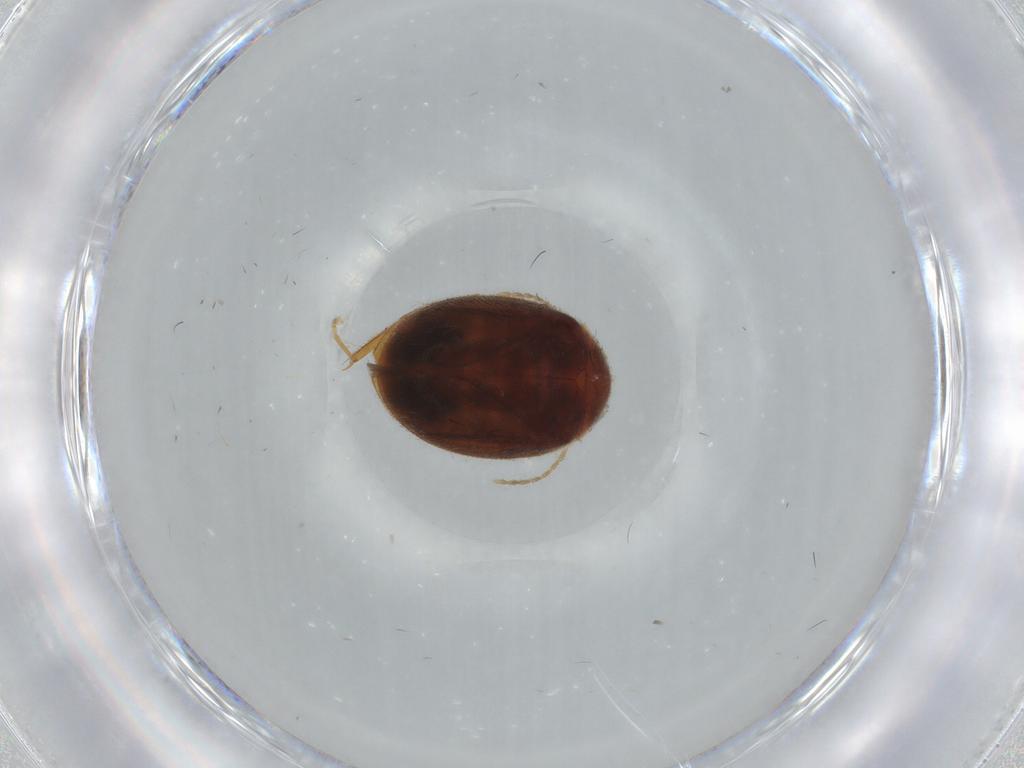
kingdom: Animalia
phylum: Arthropoda
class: Insecta
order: Coleoptera
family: Scirtidae
